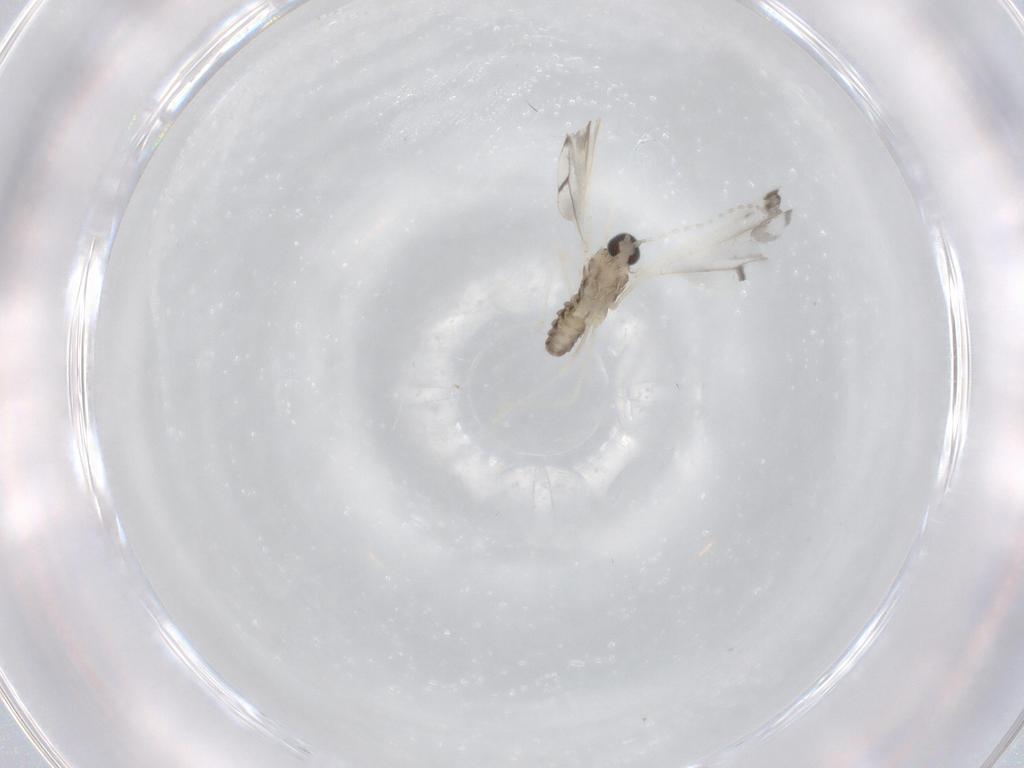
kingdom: Animalia
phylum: Arthropoda
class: Insecta
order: Diptera
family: Cecidomyiidae
